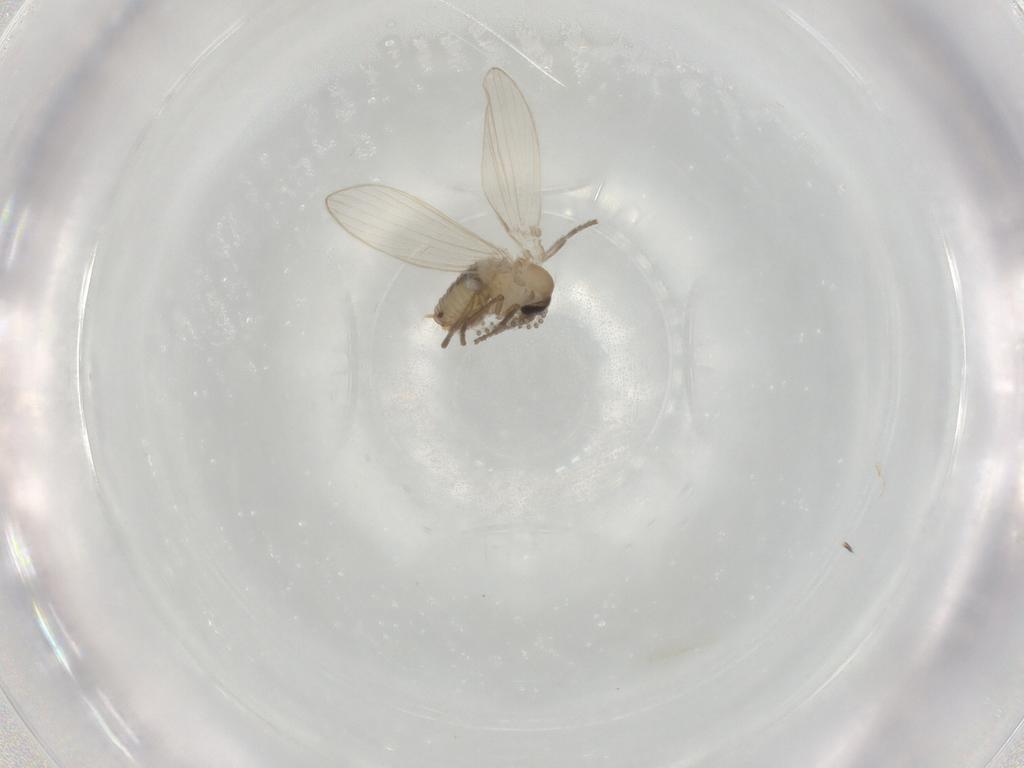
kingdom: Animalia
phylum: Arthropoda
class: Insecta
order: Diptera
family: Psychodidae
